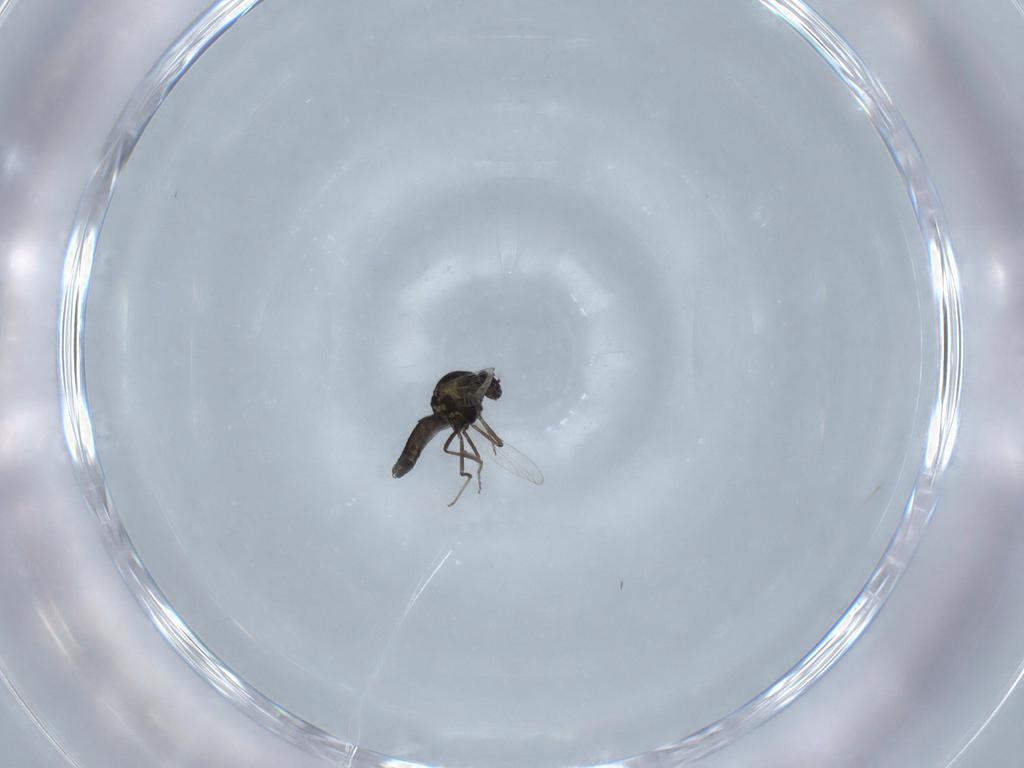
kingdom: Animalia
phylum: Arthropoda
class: Insecta
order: Diptera
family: Ceratopogonidae
